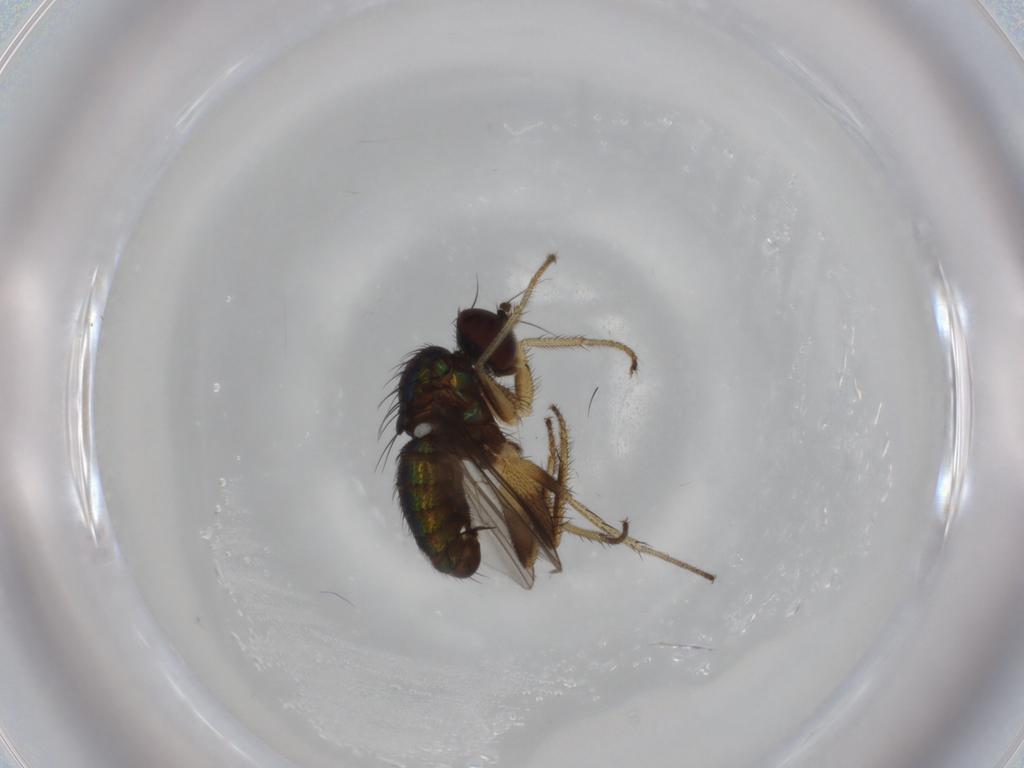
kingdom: Animalia
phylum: Arthropoda
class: Insecta
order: Diptera
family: Dolichopodidae
